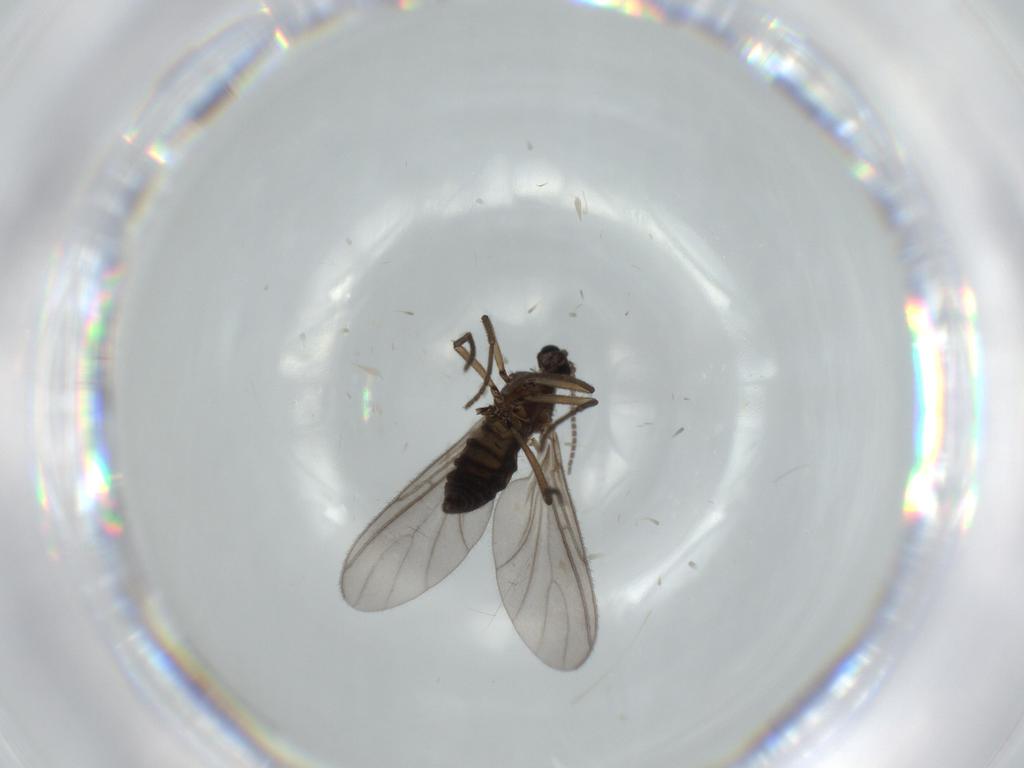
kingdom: Animalia
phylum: Arthropoda
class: Insecta
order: Diptera
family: Sciaridae
